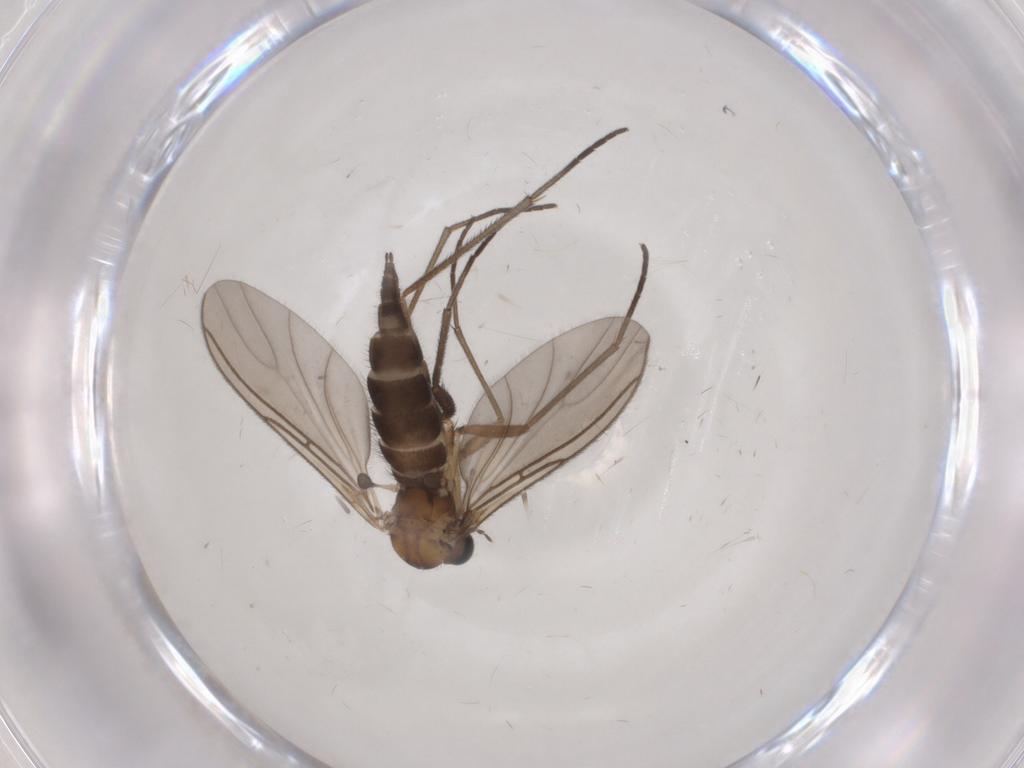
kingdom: Animalia
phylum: Arthropoda
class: Insecta
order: Diptera
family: Sciaridae
